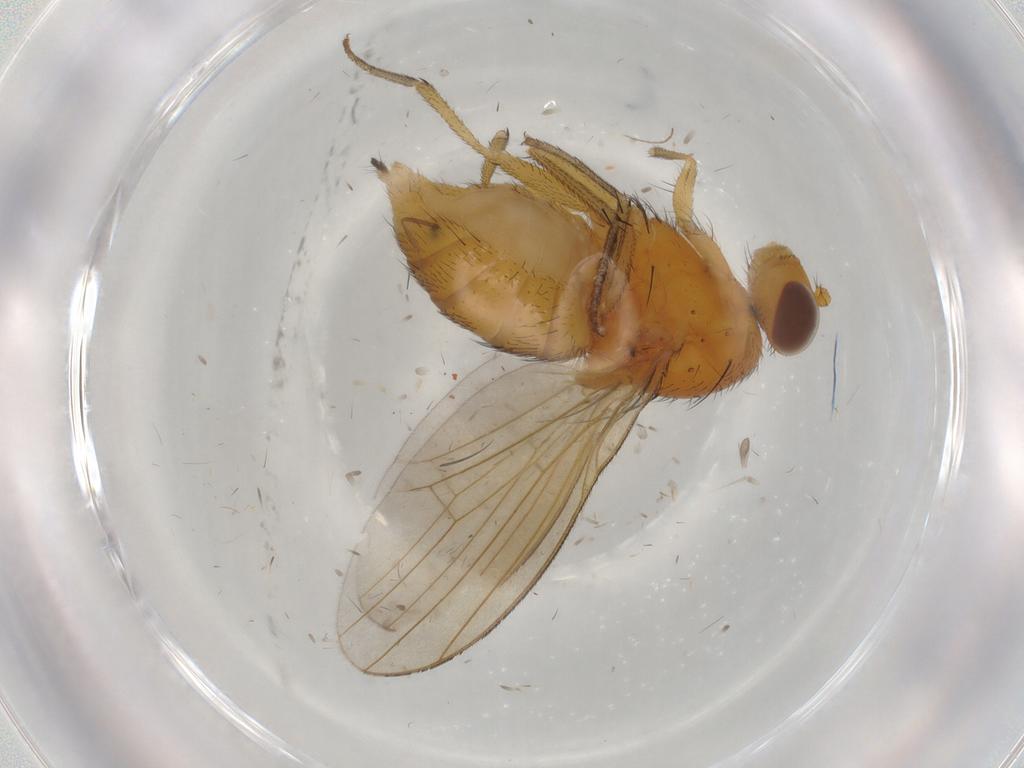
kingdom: Animalia
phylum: Arthropoda
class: Insecta
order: Diptera
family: Lauxaniidae
